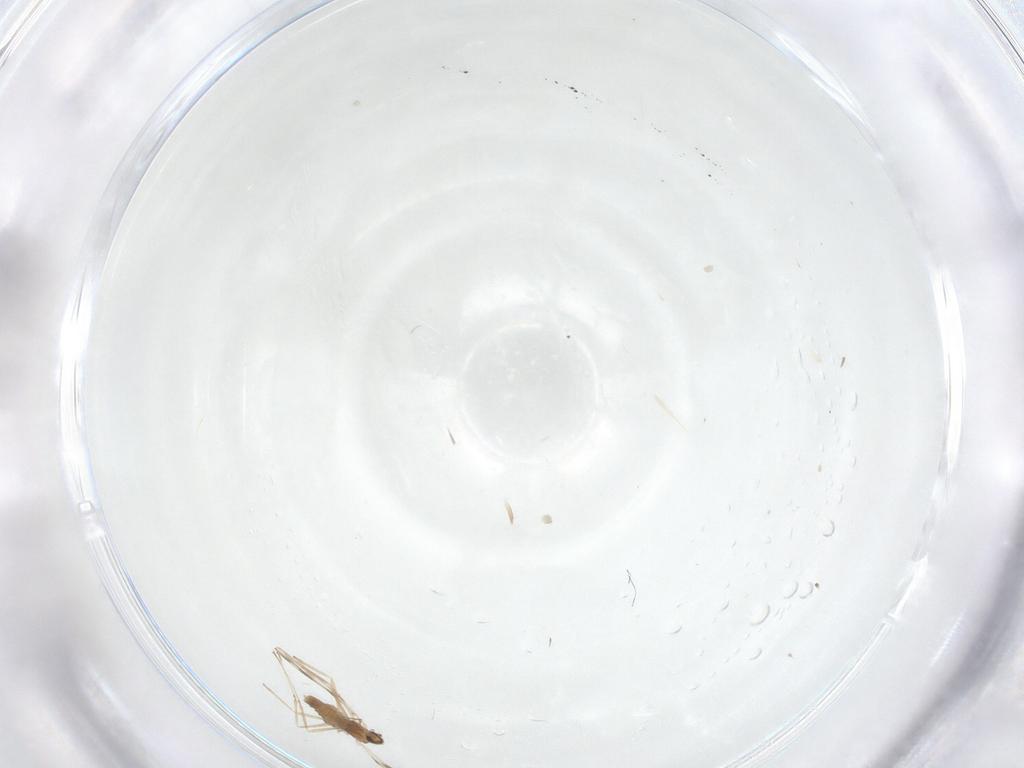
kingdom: Animalia
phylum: Arthropoda
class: Insecta
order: Diptera
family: Cecidomyiidae
